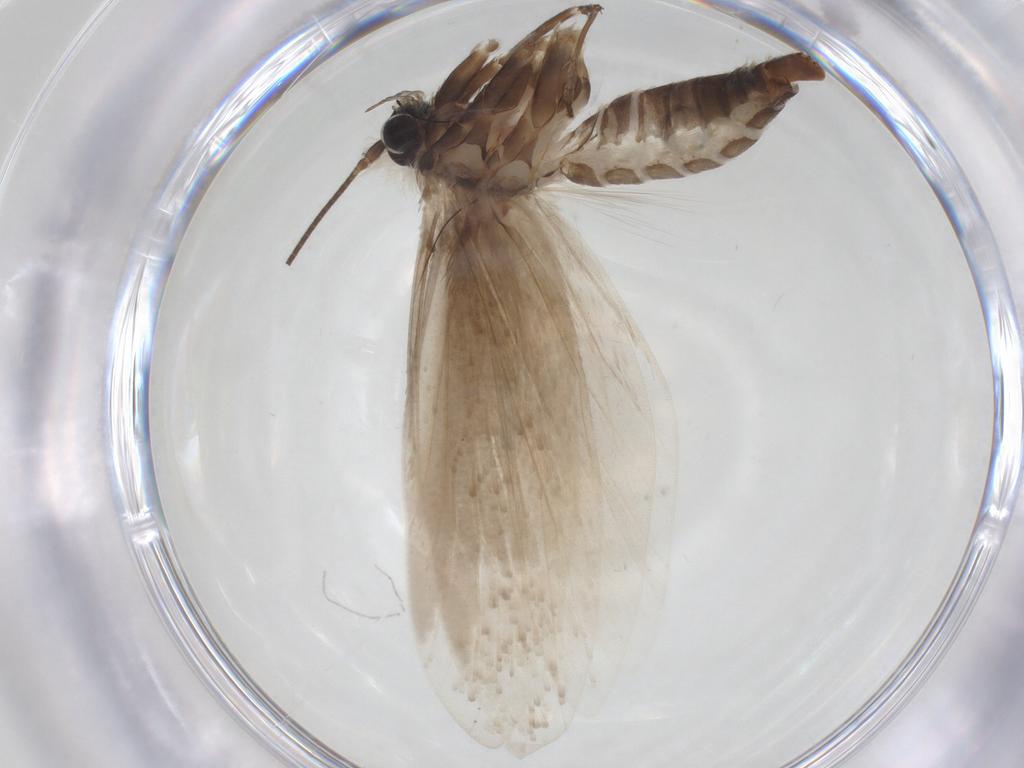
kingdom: Animalia
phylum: Arthropoda
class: Insecta
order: Lepidoptera
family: Tridentaformidae
